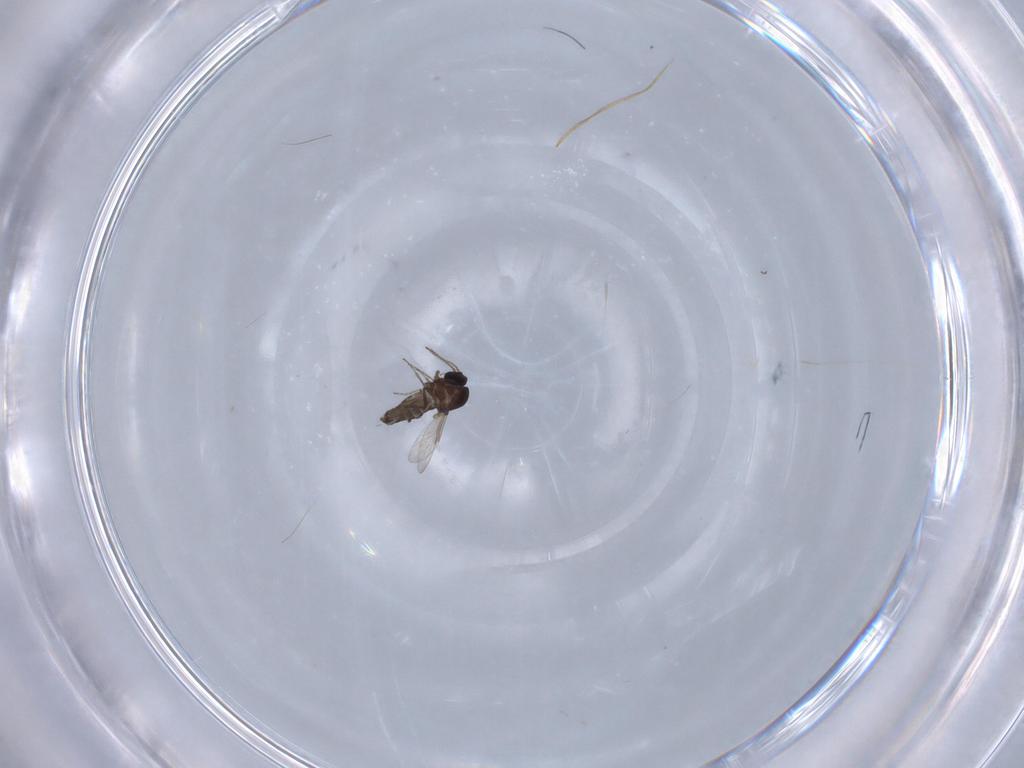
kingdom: Animalia
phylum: Arthropoda
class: Insecta
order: Diptera
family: Ceratopogonidae
